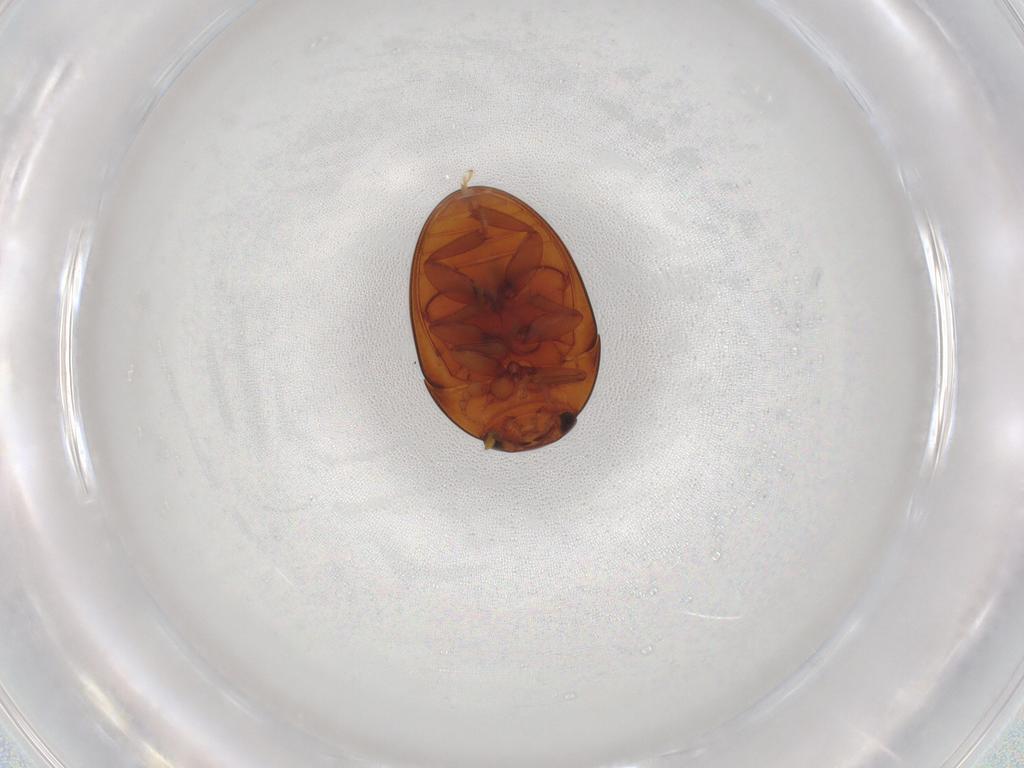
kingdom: Animalia
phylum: Arthropoda
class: Insecta
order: Coleoptera
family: Phalacridae
